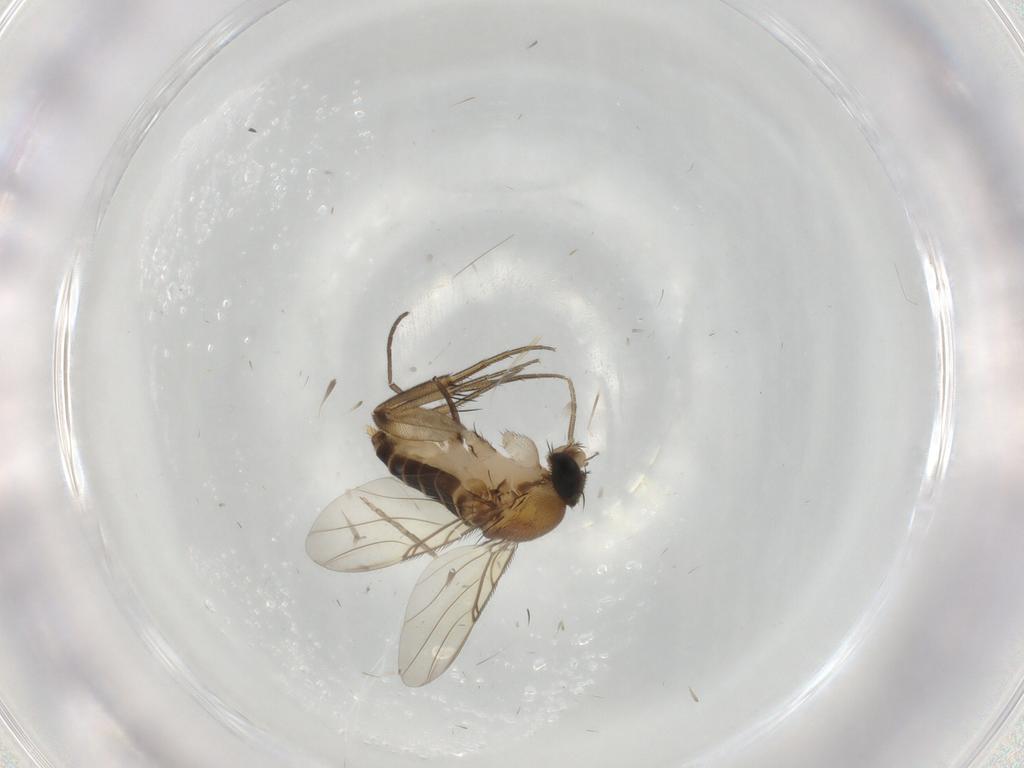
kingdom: Animalia
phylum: Arthropoda
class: Insecta
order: Diptera
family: Phoridae
